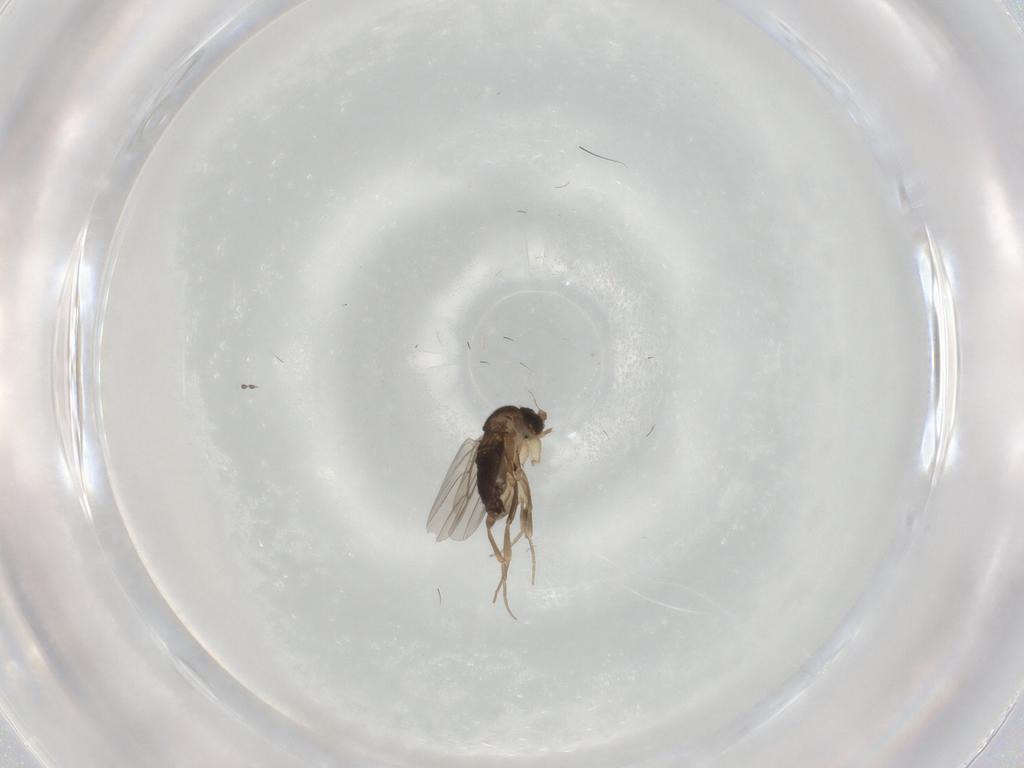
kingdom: Animalia
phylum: Arthropoda
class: Insecta
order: Diptera
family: Phoridae
